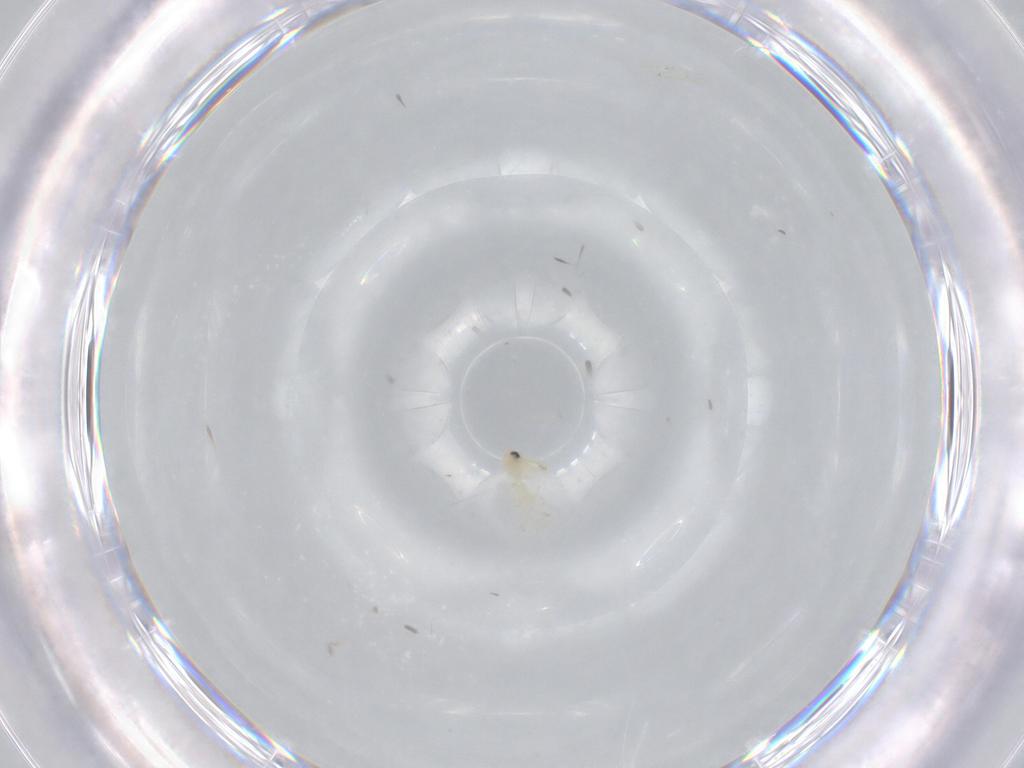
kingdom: Animalia
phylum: Arthropoda
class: Insecta
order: Hemiptera
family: Aleyrodidae
